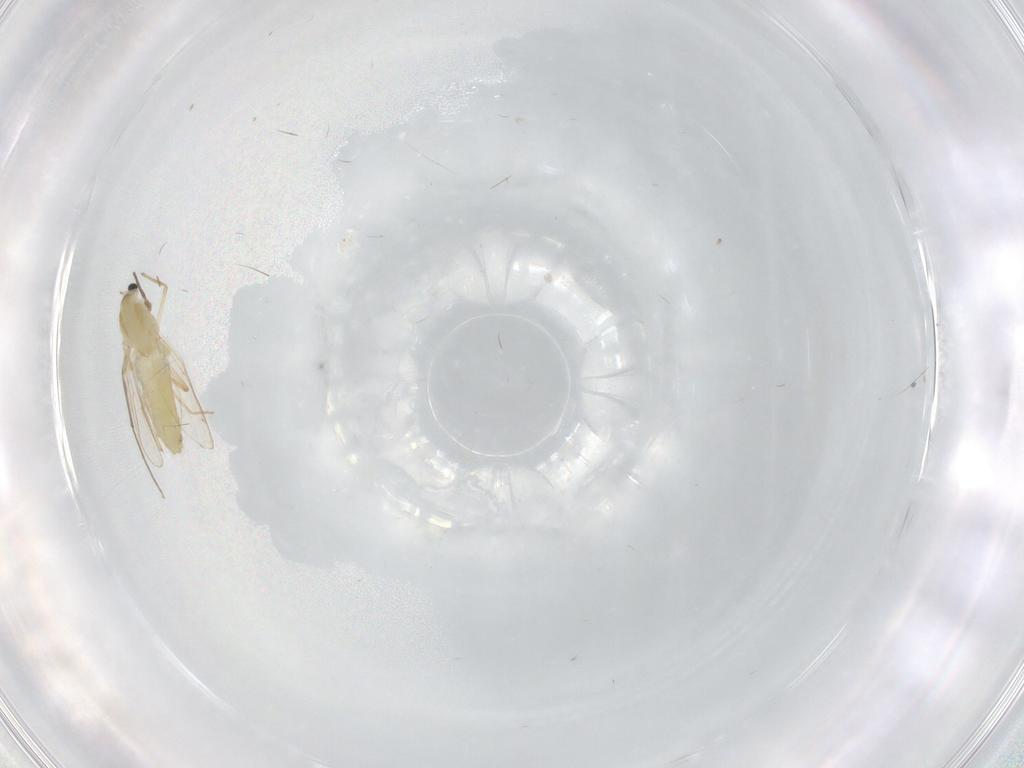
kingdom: Animalia
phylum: Arthropoda
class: Insecta
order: Diptera
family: Chironomidae
